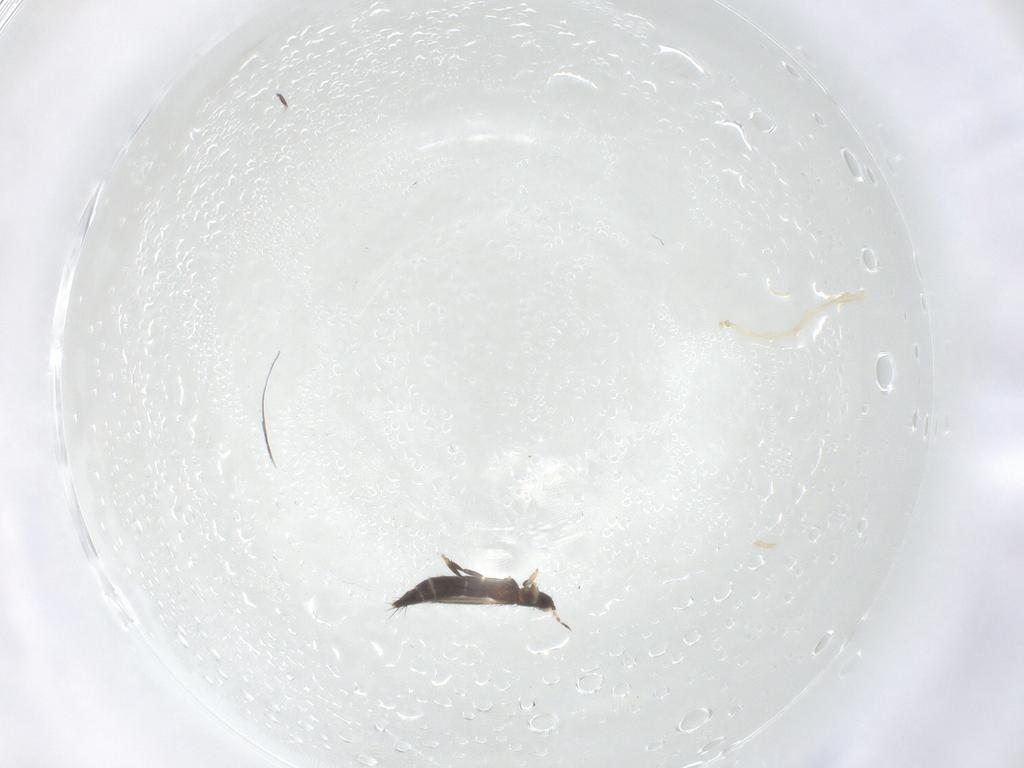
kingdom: Animalia
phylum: Arthropoda
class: Insecta
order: Thysanoptera
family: Thripidae
